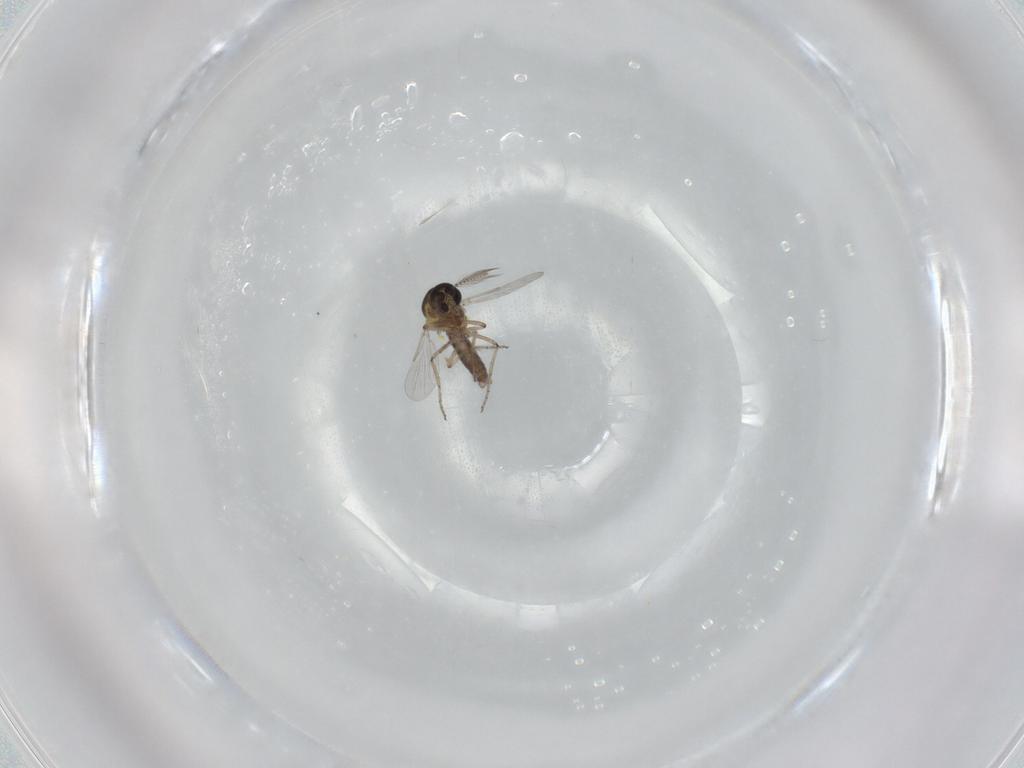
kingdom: Animalia
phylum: Arthropoda
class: Insecta
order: Diptera
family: Ceratopogonidae
